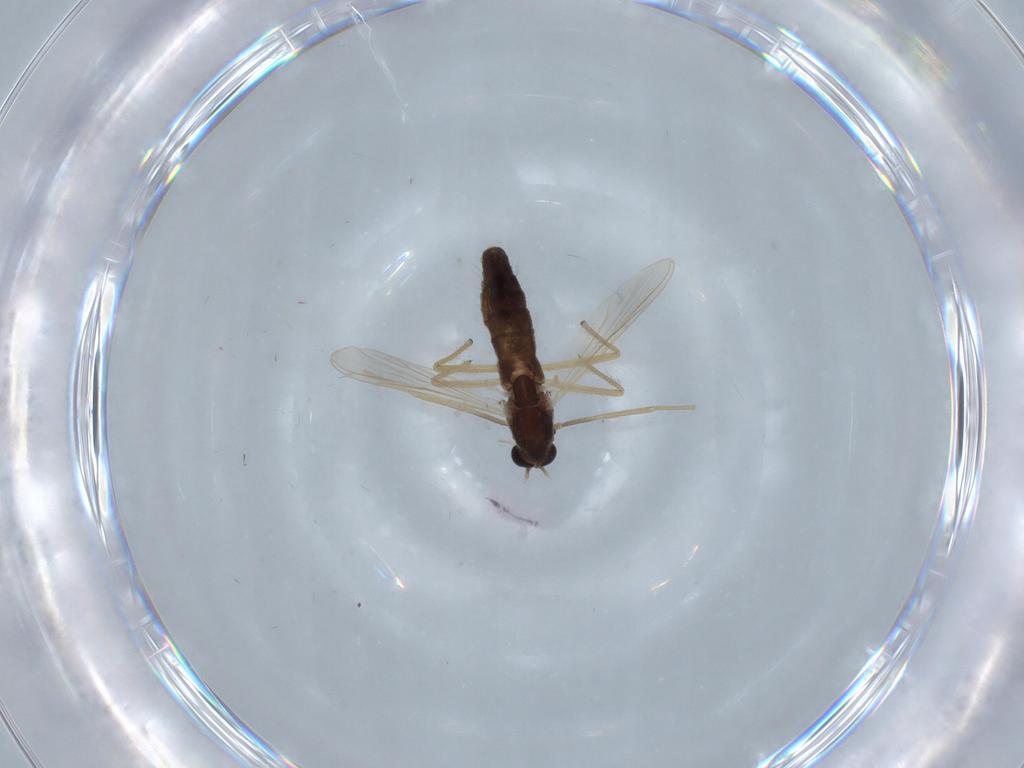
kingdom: Animalia
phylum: Arthropoda
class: Insecta
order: Diptera
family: Chironomidae
